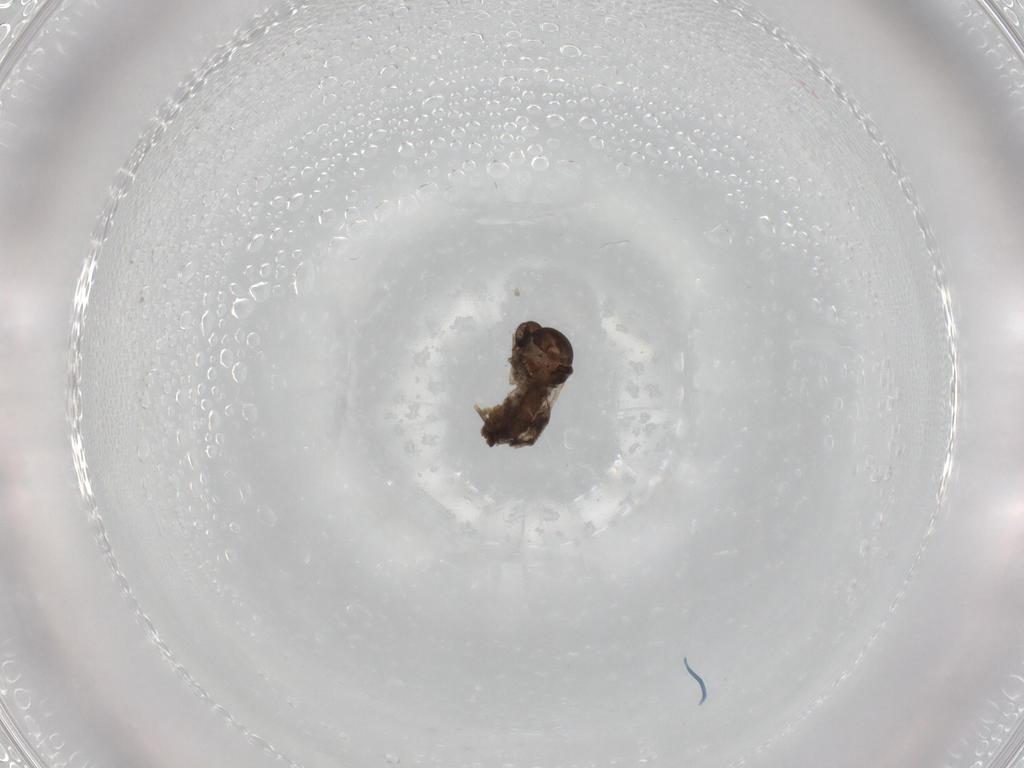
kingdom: Animalia
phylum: Arthropoda
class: Insecta
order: Diptera
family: Ceratopogonidae
